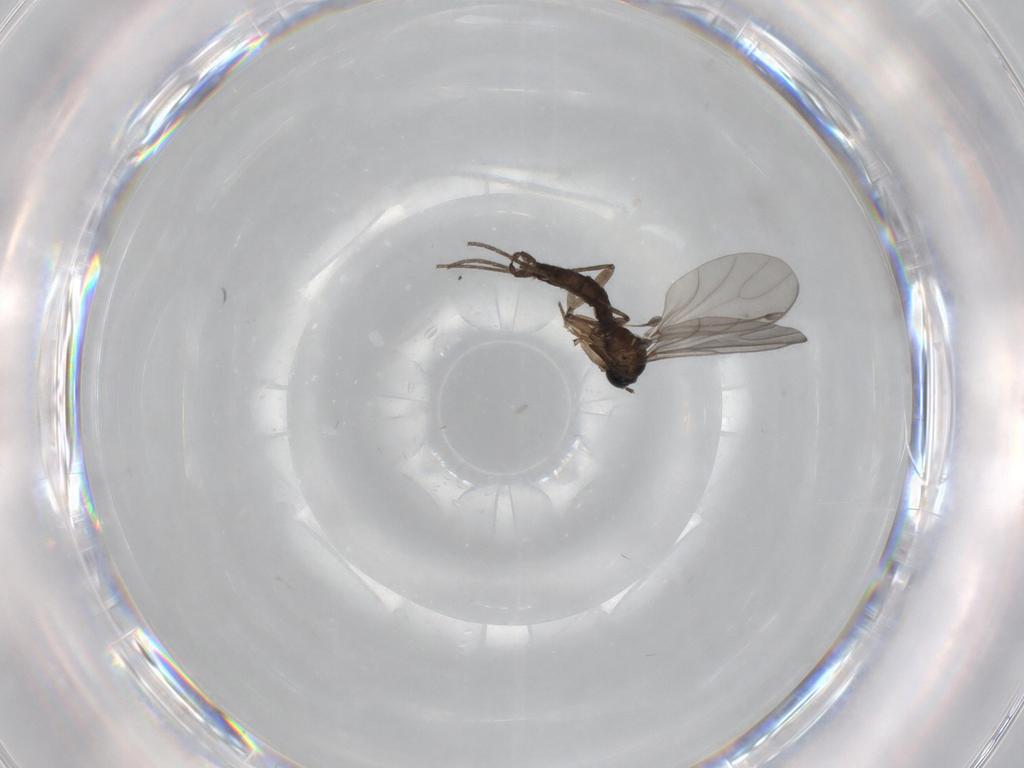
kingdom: Animalia
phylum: Arthropoda
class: Insecta
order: Diptera
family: Sciaridae
